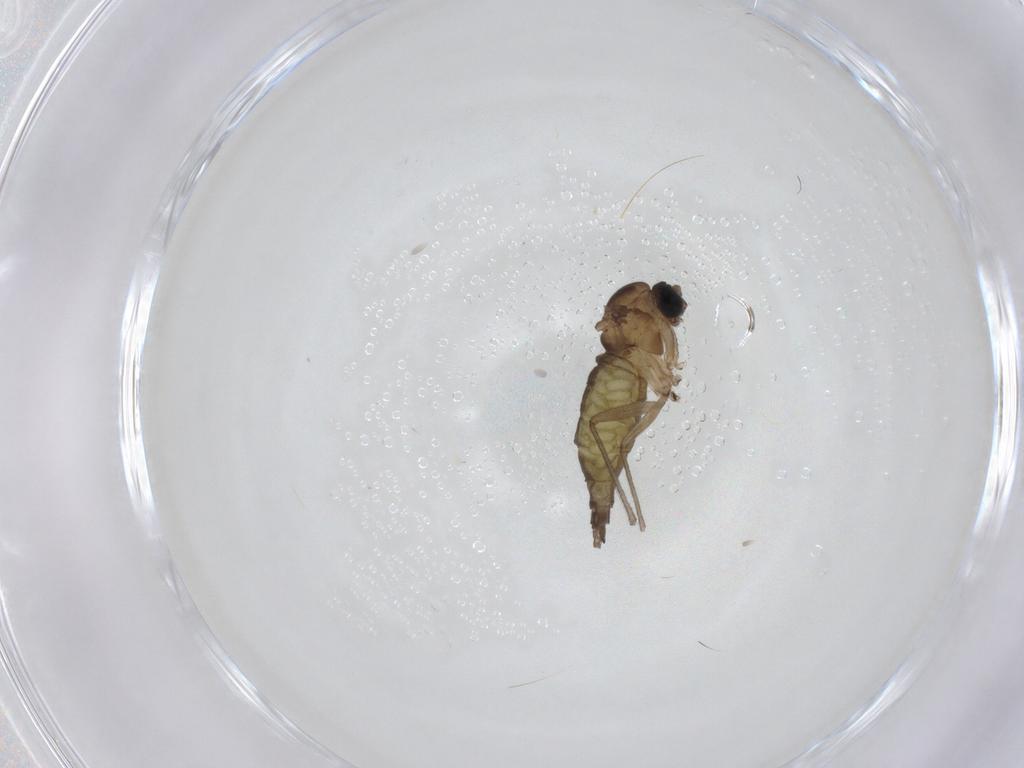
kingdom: Animalia
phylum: Arthropoda
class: Insecta
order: Diptera
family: Sciaridae
